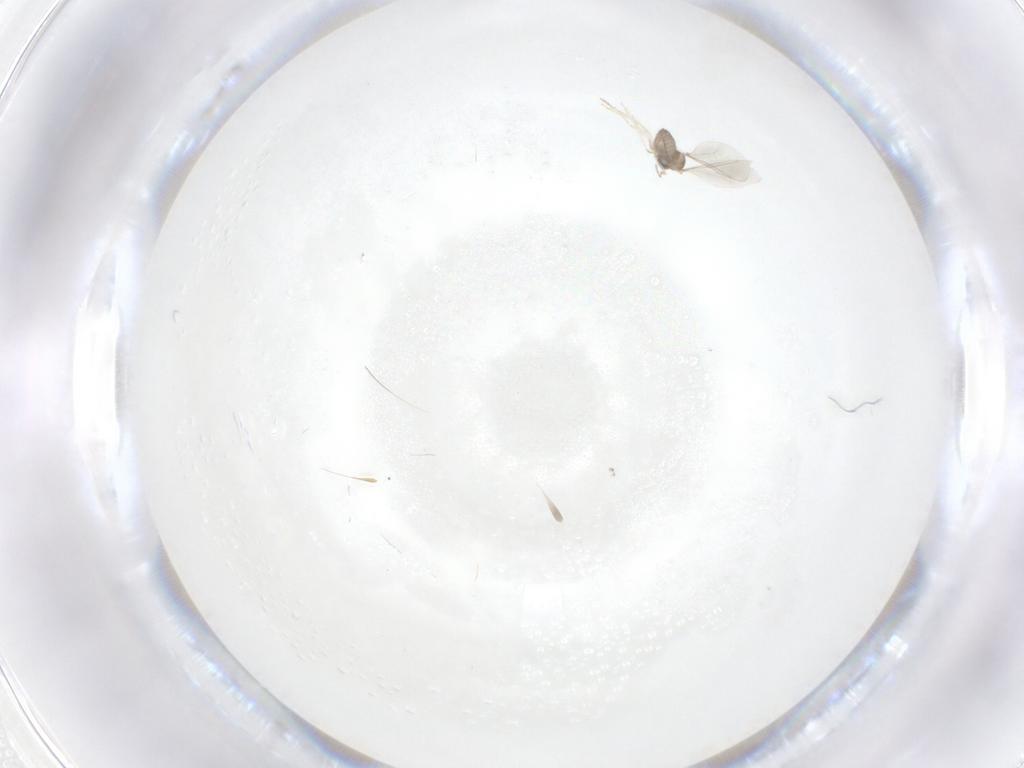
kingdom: Animalia
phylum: Arthropoda
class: Insecta
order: Diptera
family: Cecidomyiidae
